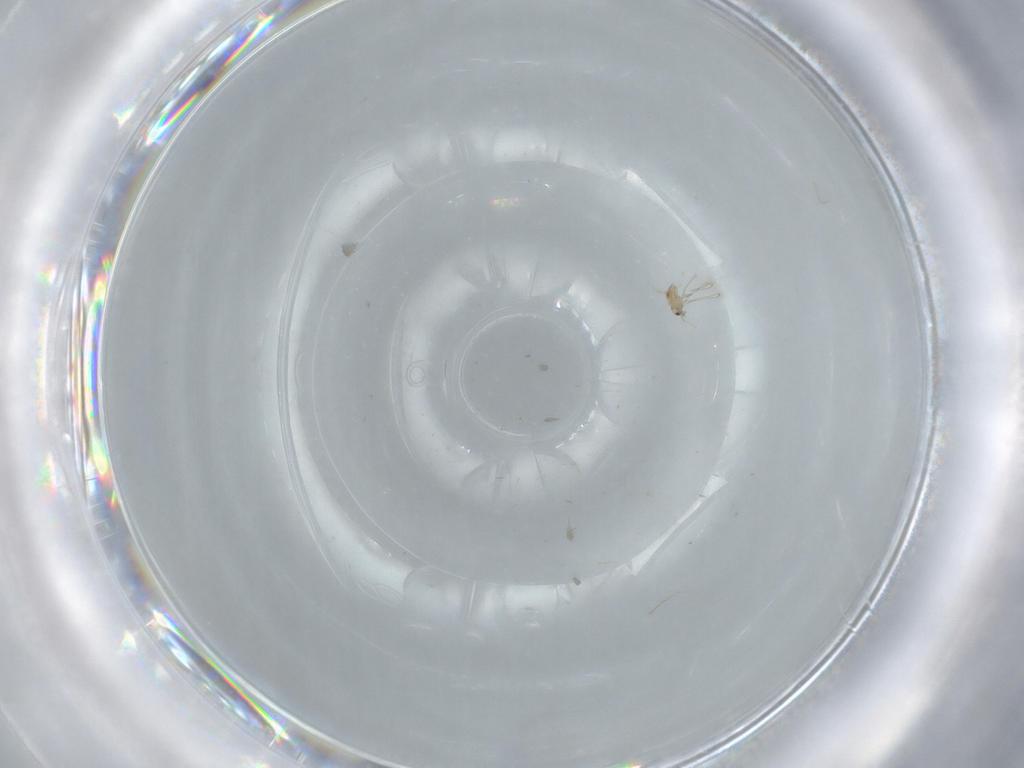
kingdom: Animalia
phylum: Arthropoda
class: Insecta
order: Hymenoptera
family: Mymaridae
